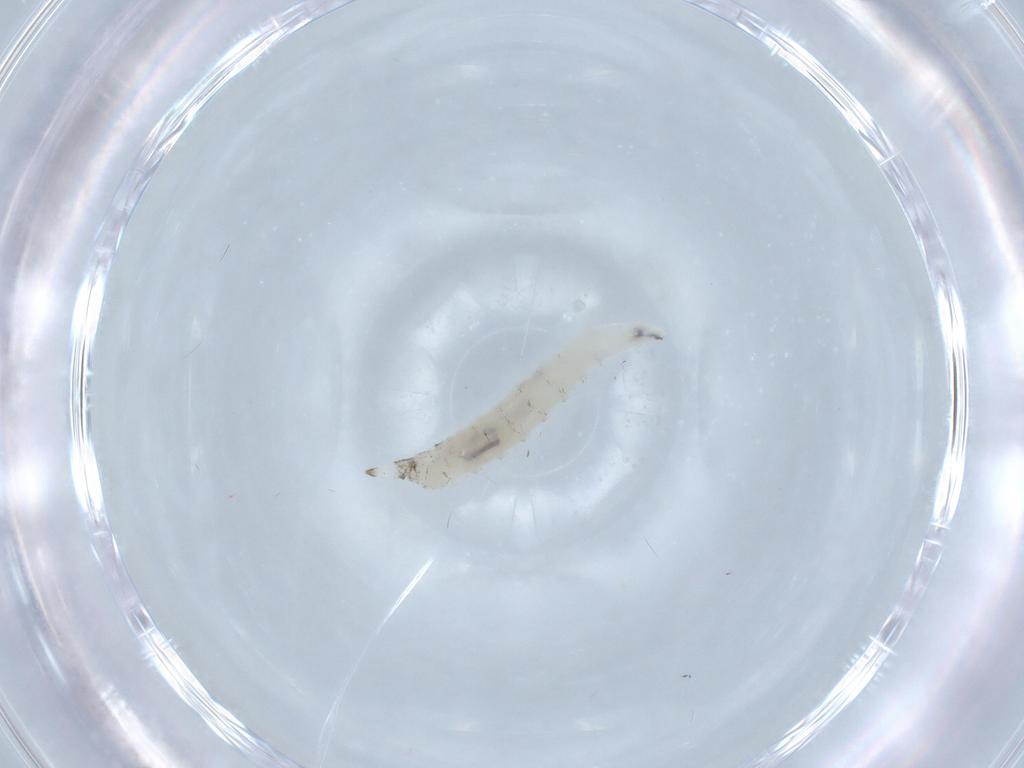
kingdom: Animalia
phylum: Arthropoda
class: Insecta
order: Diptera
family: Chironomidae
